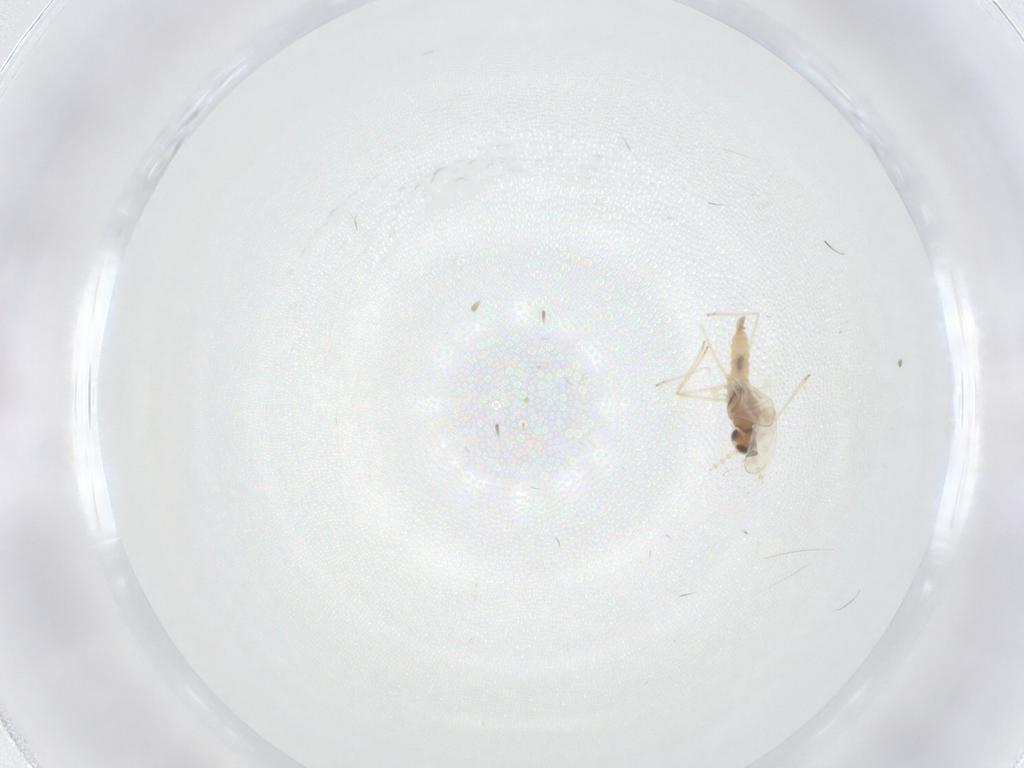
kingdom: Animalia
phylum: Arthropoda
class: Insecta
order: Diptera
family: Cecidomyiidae
